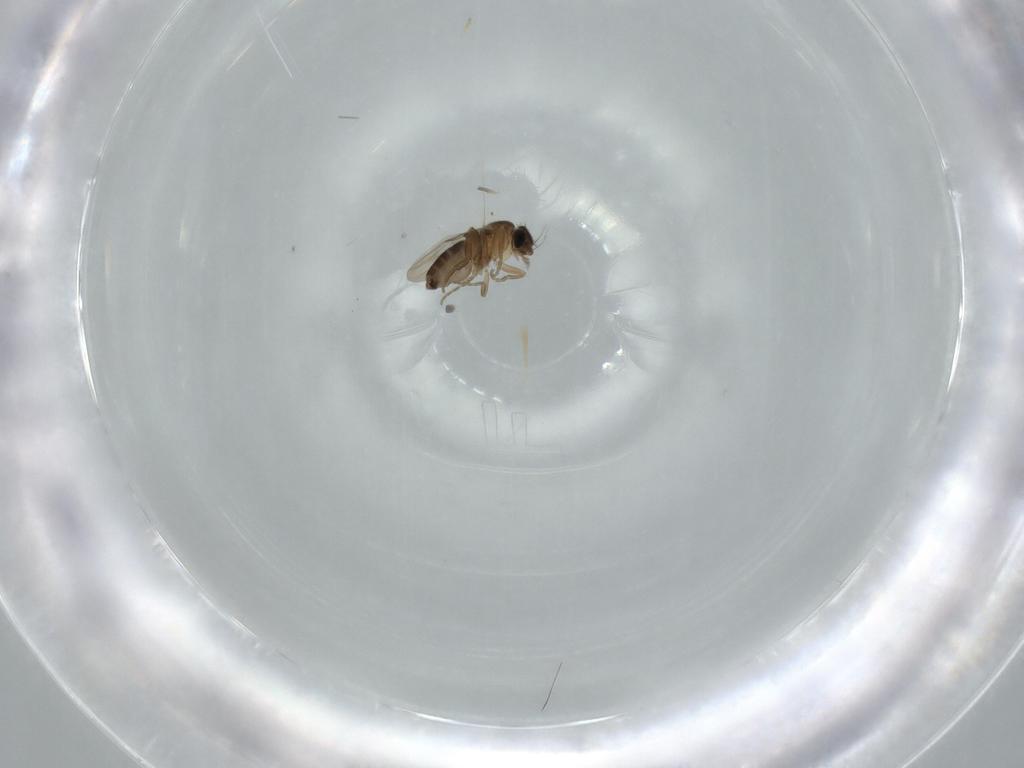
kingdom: Animalia
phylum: Arthropoda
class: Insecta
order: Diptera
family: Phoridae
